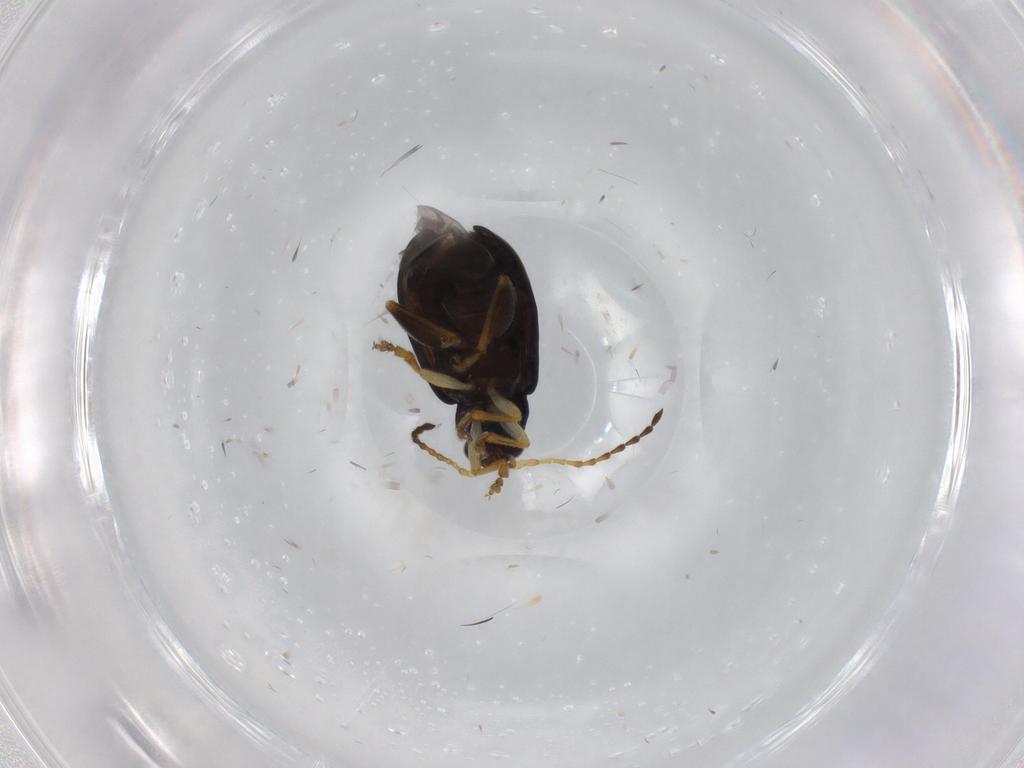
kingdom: Animalia
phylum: Arthropoda
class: Insecta
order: Coleoptera
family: Chrysomelidae
